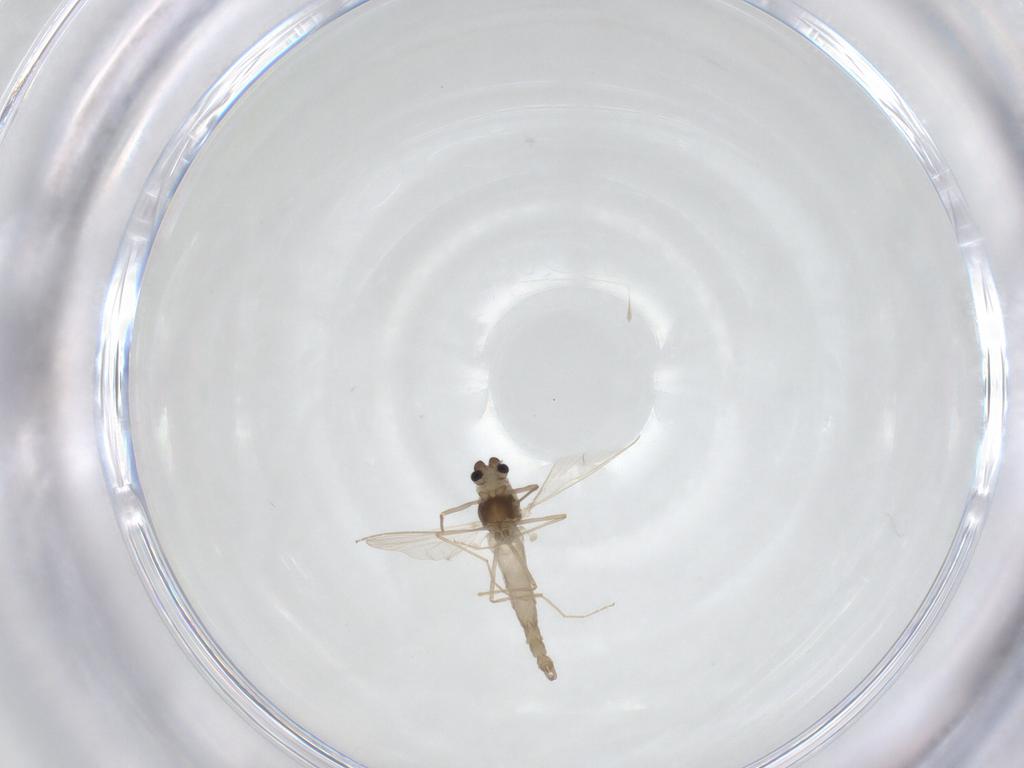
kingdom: Animalia
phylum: Arthropoda
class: Insecta
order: Diptera
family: Chironomidae
